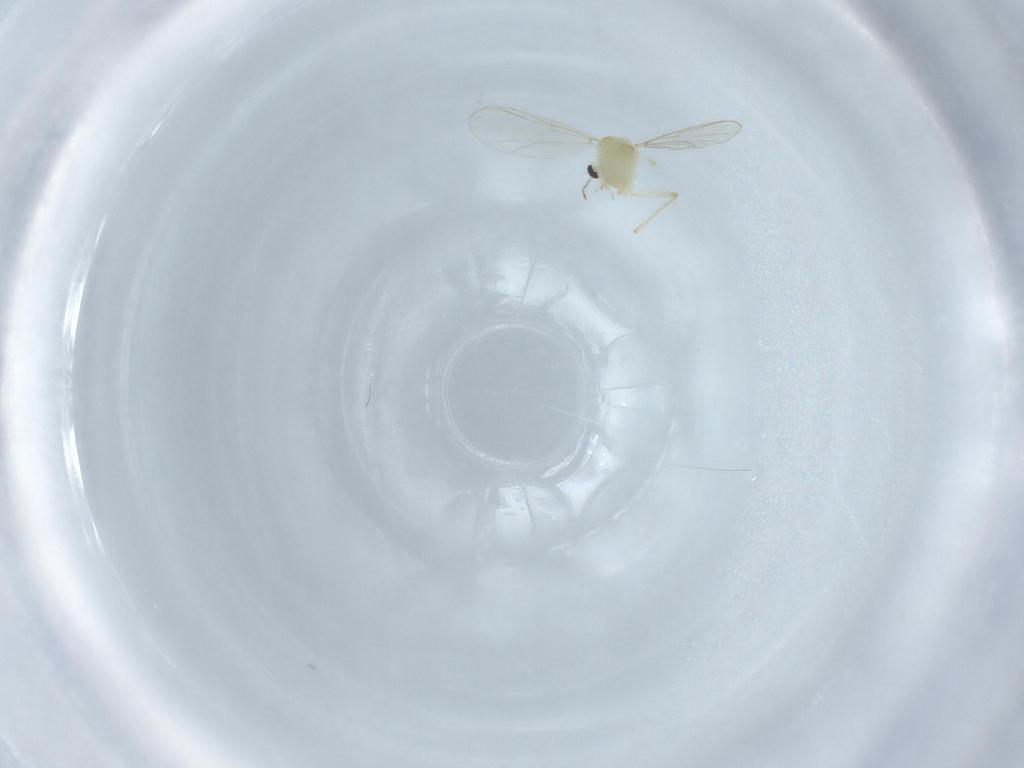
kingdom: Animalia
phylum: Arthropoda
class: Insecta
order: Diptera
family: Chironomidae
